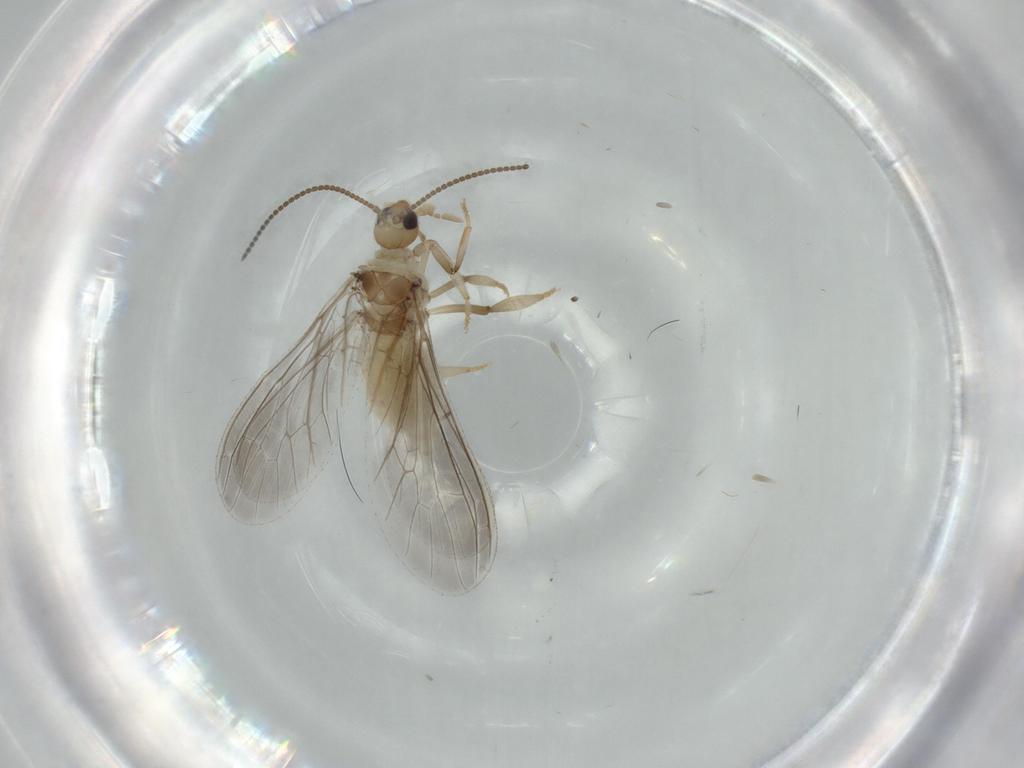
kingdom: Animalia
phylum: Arthropoda
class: Insecta
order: Neuroptera
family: Coniopterygidae
